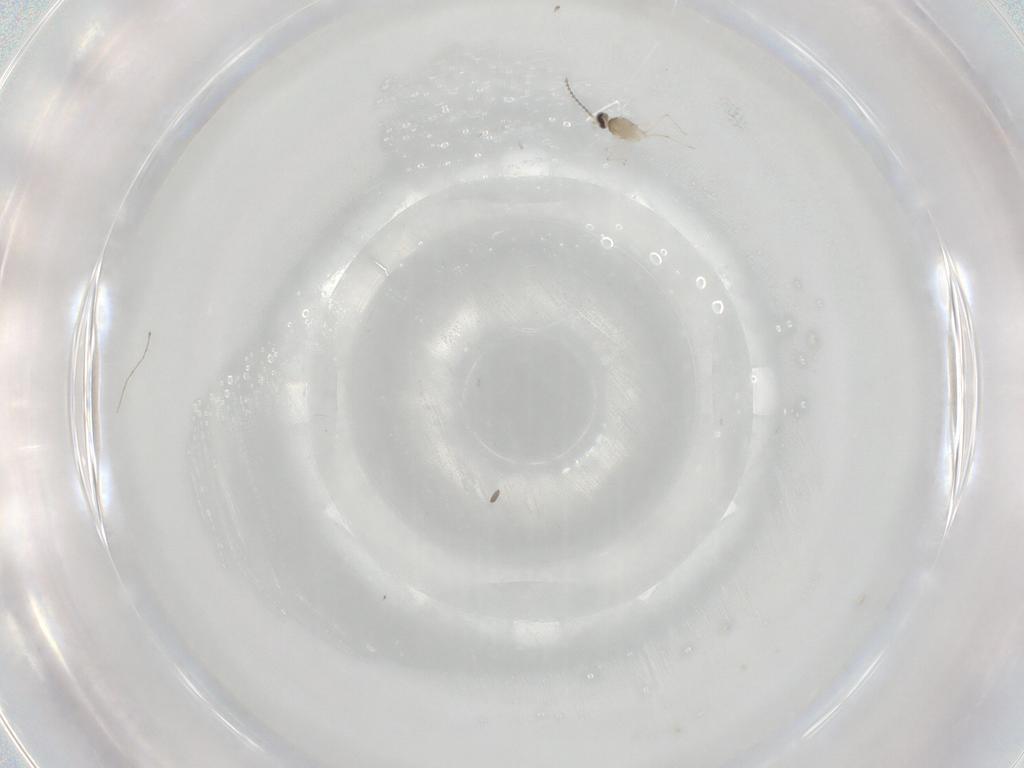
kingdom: Animalia
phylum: Arthropoda
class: Insecta
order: Diptera
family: Cecidomyiidae
